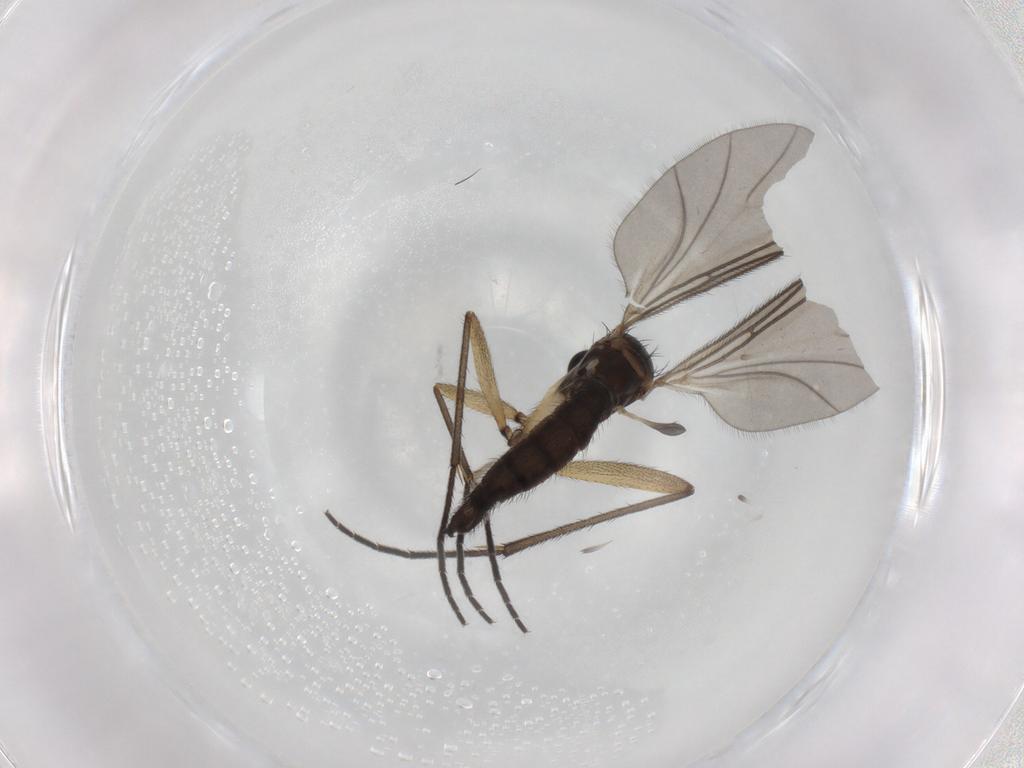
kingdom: Animalia
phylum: Arthropoda
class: Insecta
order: Diptera
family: Sciaridae
